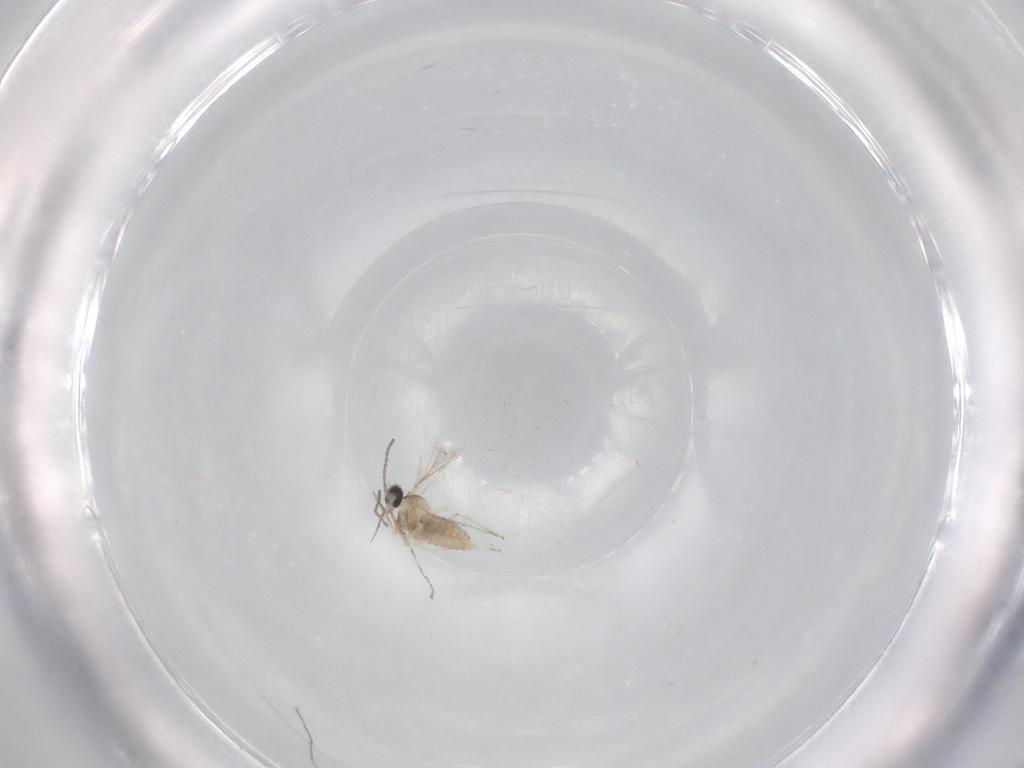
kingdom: Animalia
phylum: Arthropoda
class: Insecta
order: Diptera
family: Cecidomyiidae
